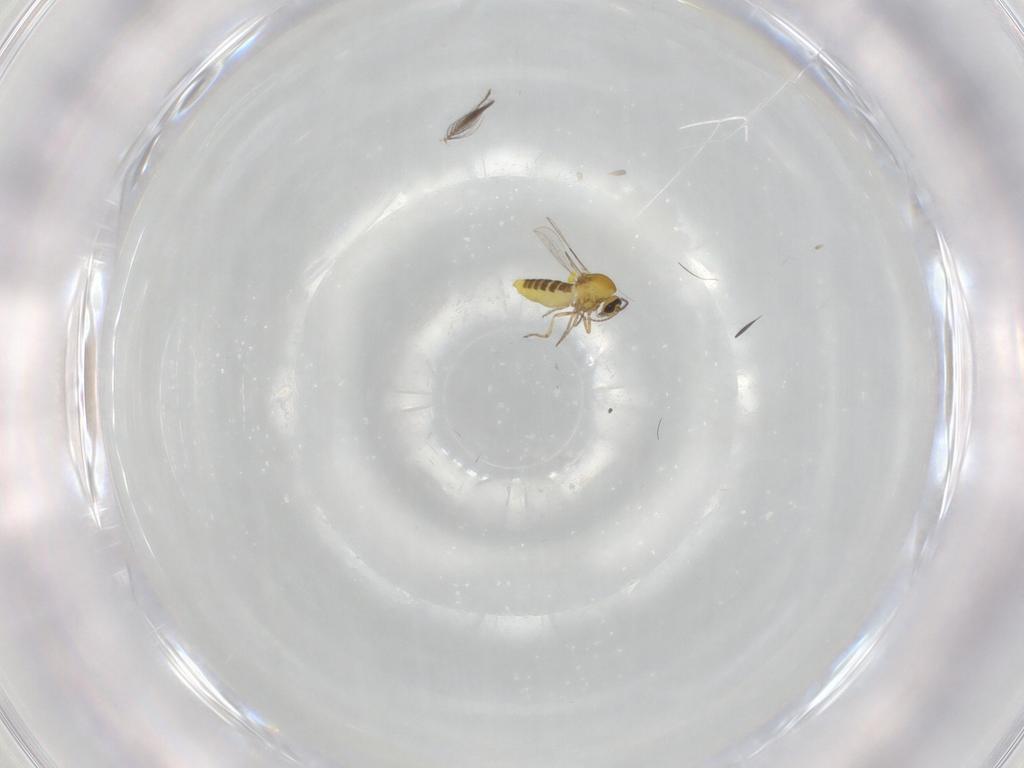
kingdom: Animalia
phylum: Arthropoda
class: Insecta
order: Diptera
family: Ceratopogonidae
